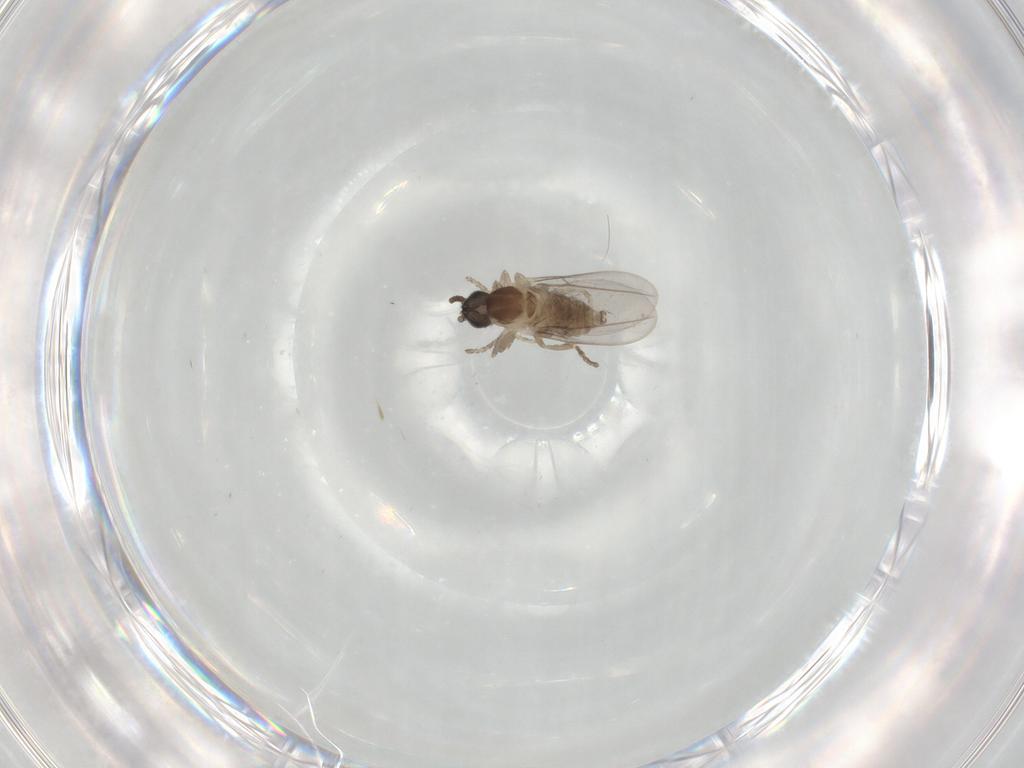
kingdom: Animalia
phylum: Arthropoda
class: Insecta
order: Diptera
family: Cecidomyiidae
